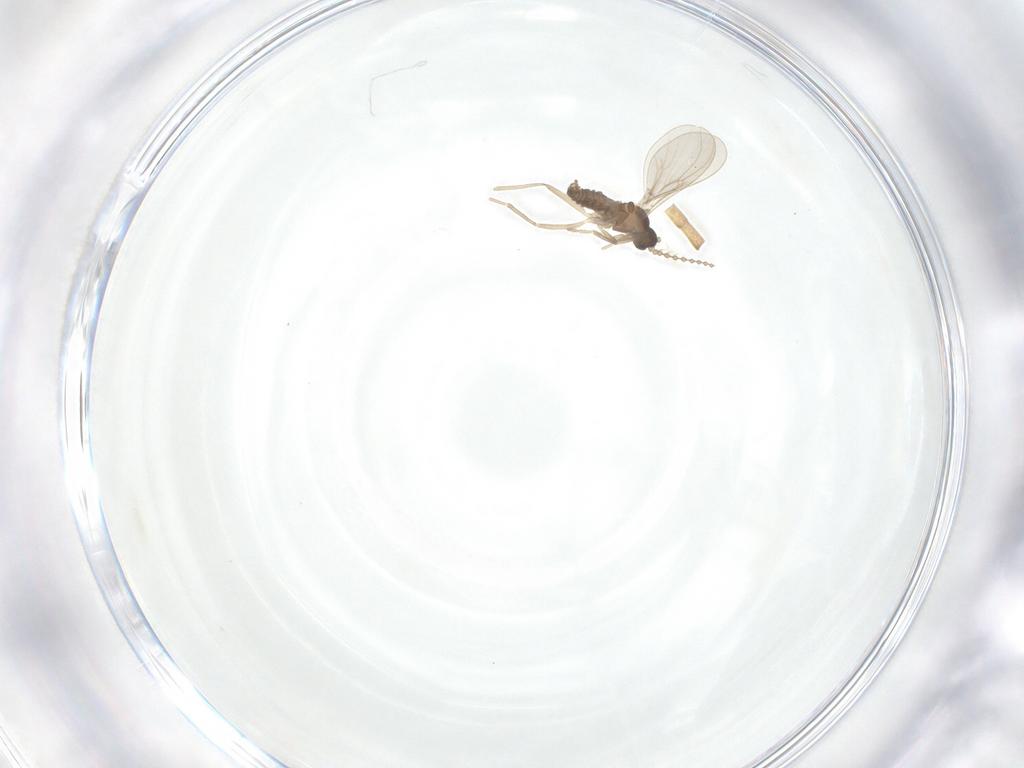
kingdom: Animalia
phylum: Arthropoda
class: Insecta
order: Diptera
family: Cecidomyiidae
